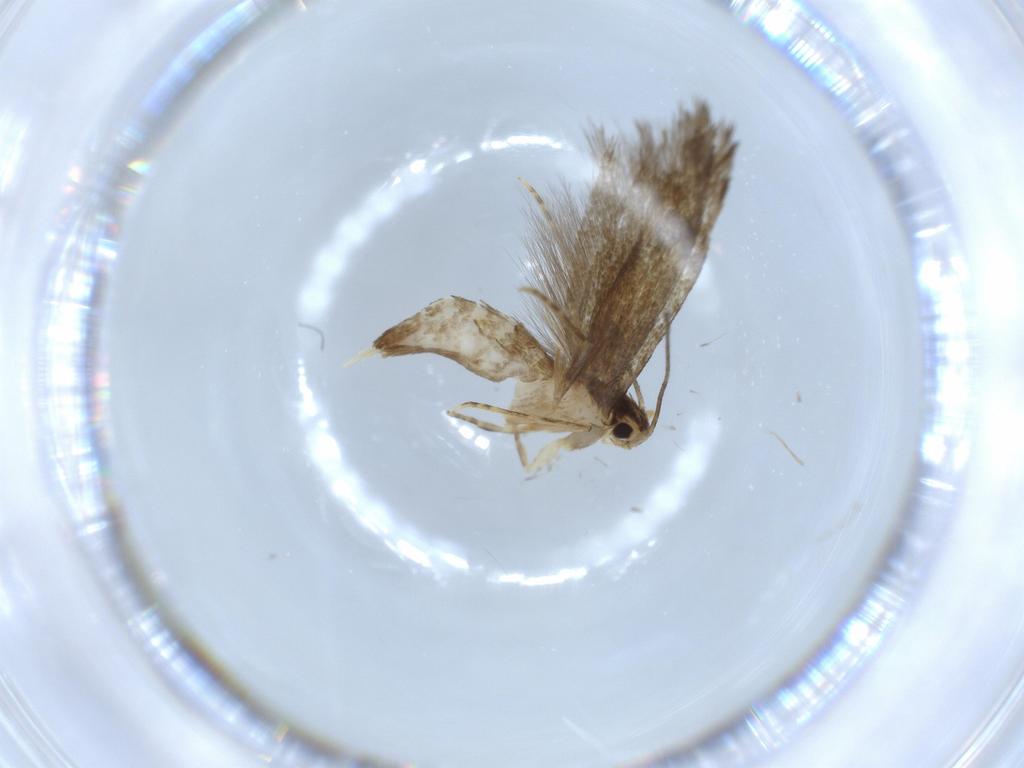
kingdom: Animalia
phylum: Arthropoda
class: Insecta
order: Lepidoptera
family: Tineidae
